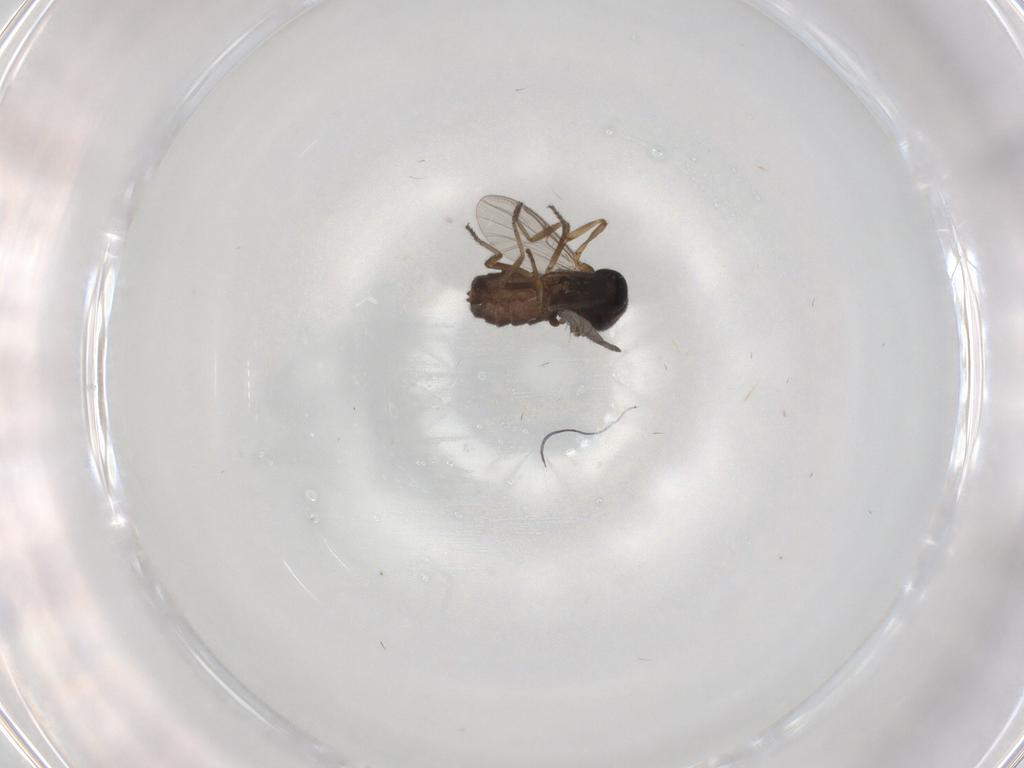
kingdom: Animalia
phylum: Arthropoda
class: Insecta
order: Diptera
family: Ceratopogonidae
